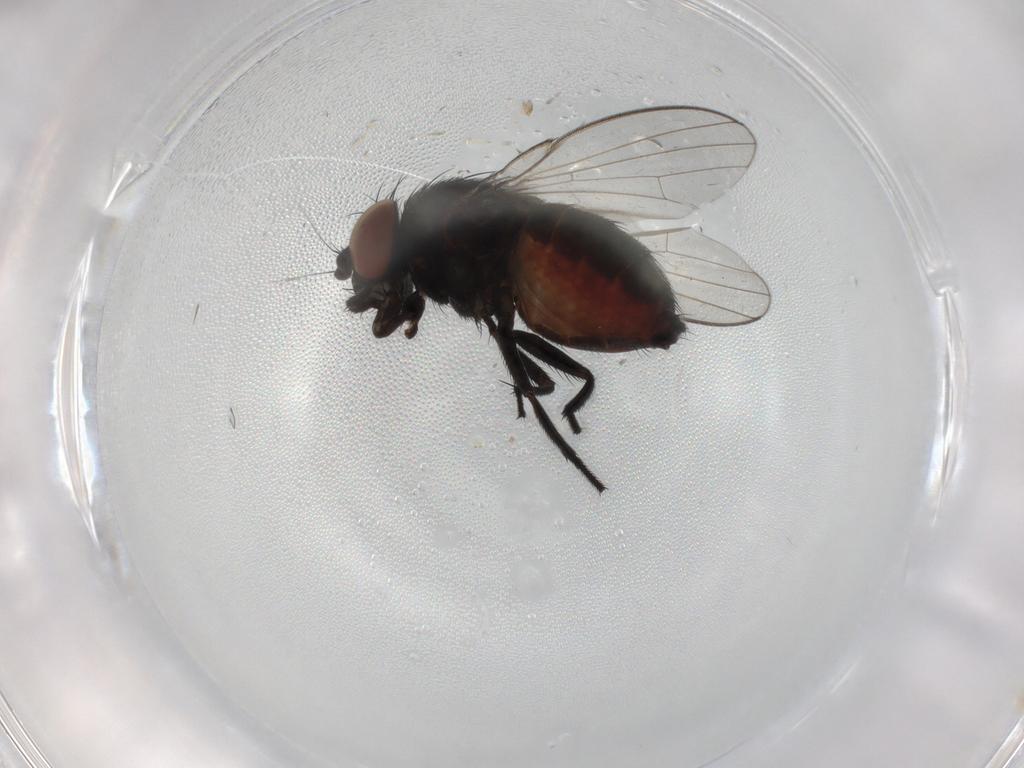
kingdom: Animalia
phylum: Arthropoda
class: Insecta
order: Diptera
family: Milichiidae
